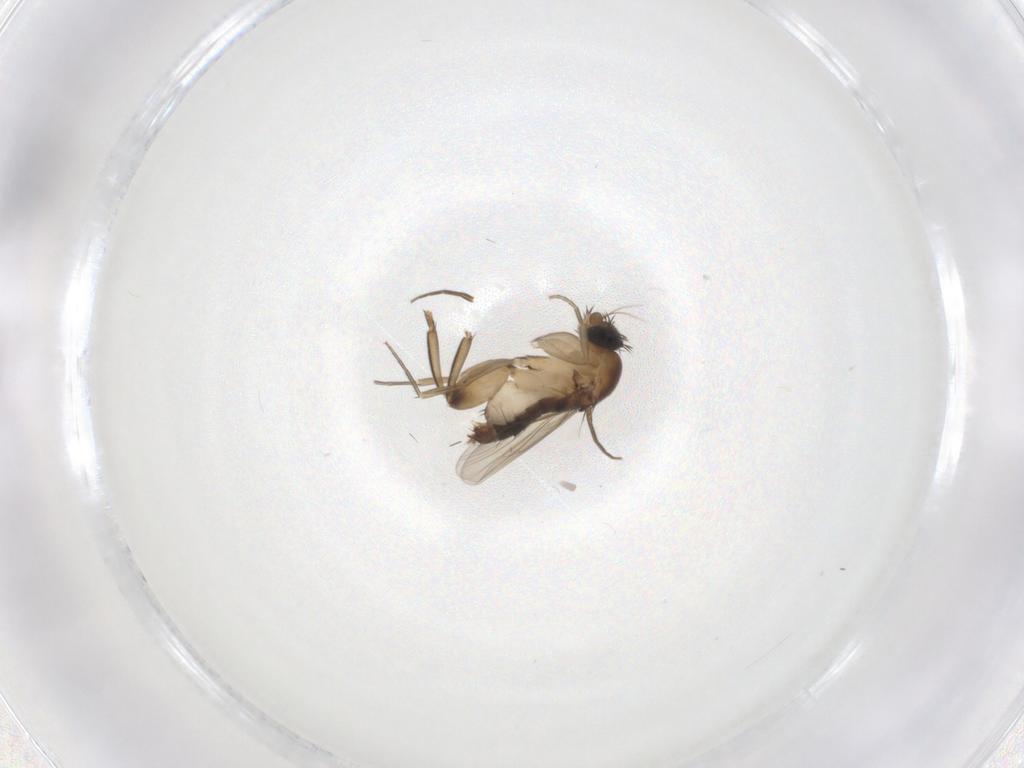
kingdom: Animalia
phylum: Arthropoda
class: Insecta
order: Diptera
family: Phoridae
